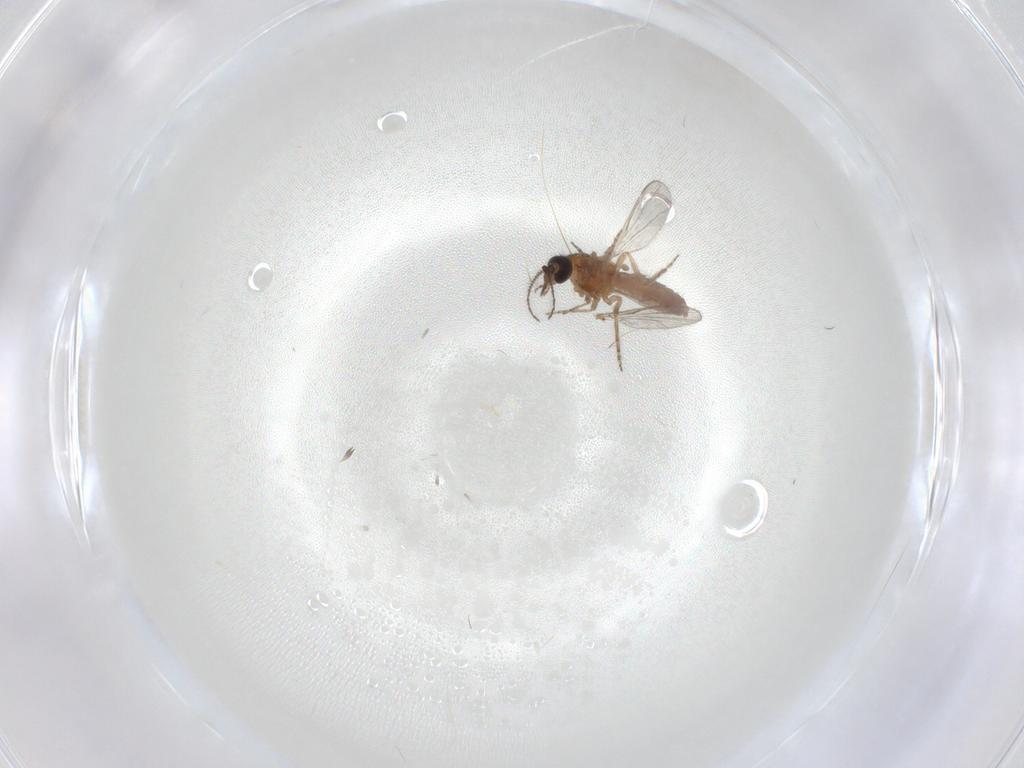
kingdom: Animalia
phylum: Arthropoda
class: Insecta
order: Diptera
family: Ceratopogonidae
